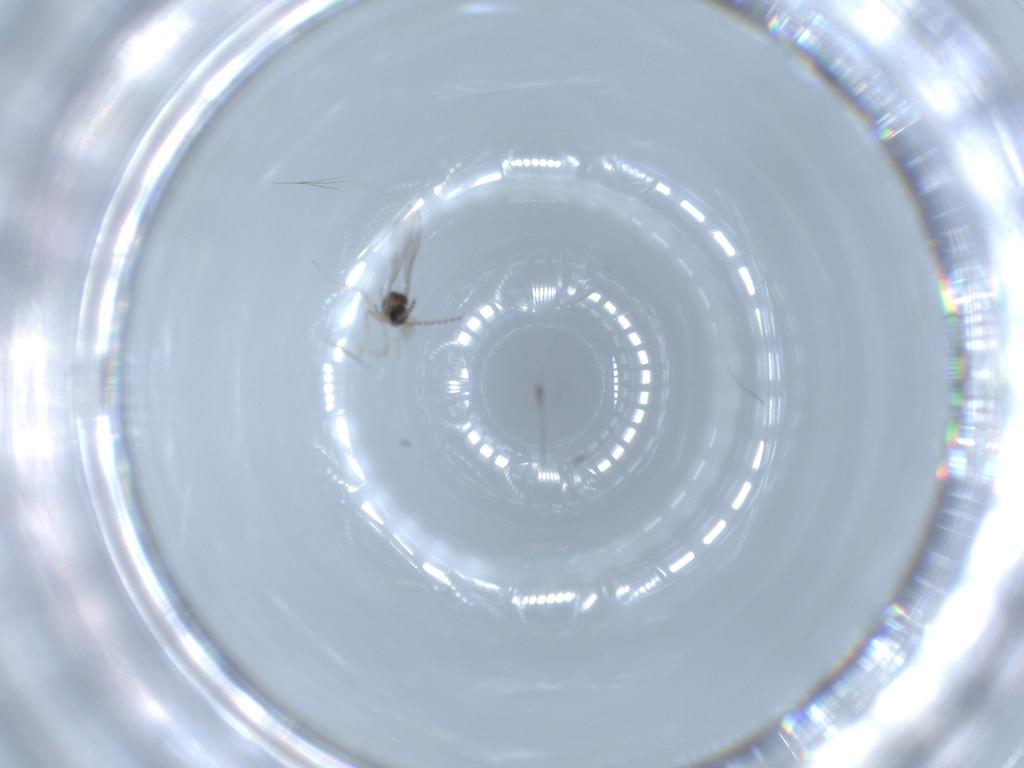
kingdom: Animalia
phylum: Arthropoda
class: Insecta
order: Diptera
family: Cecidomyiidae
